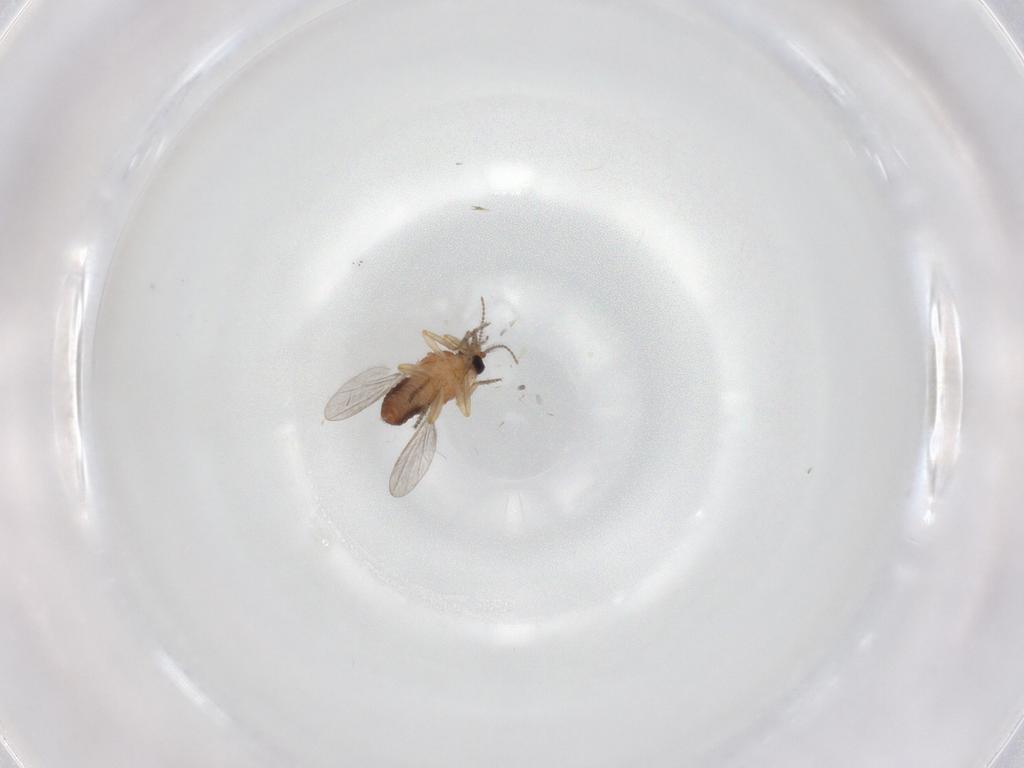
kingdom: Animalia
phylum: Arthropoda
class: Insecta
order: Diptera
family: Ceratopogonidae
